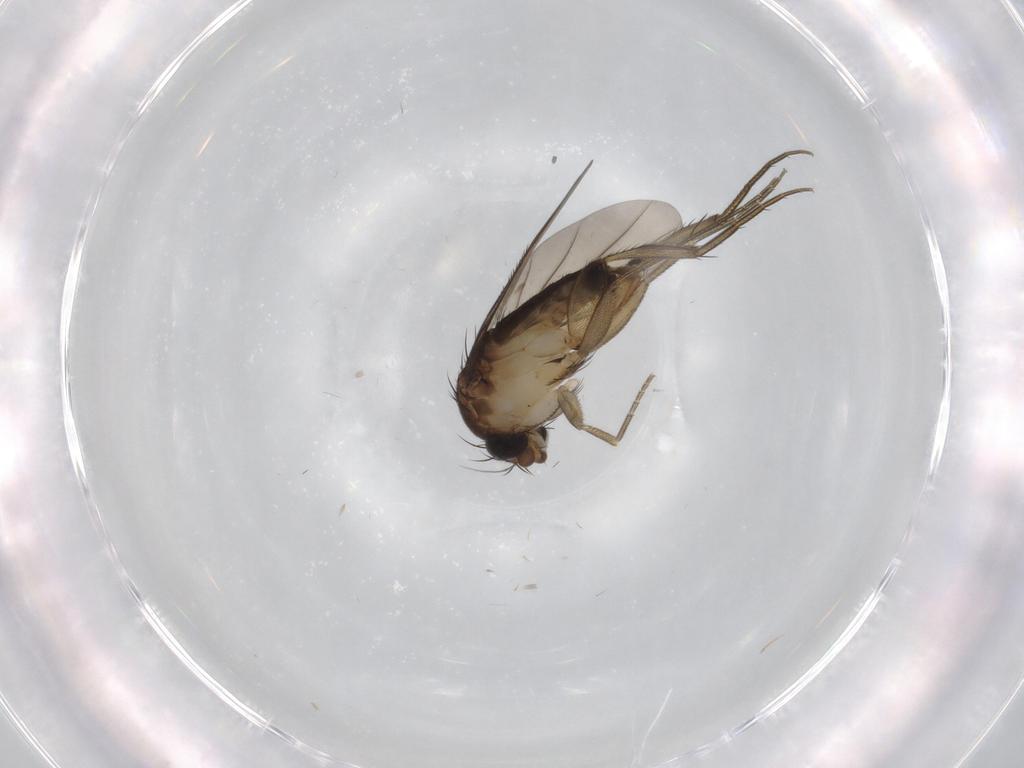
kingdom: Animalia
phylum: Arthropoda
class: Insecta
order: Diptera
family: Phoridae
